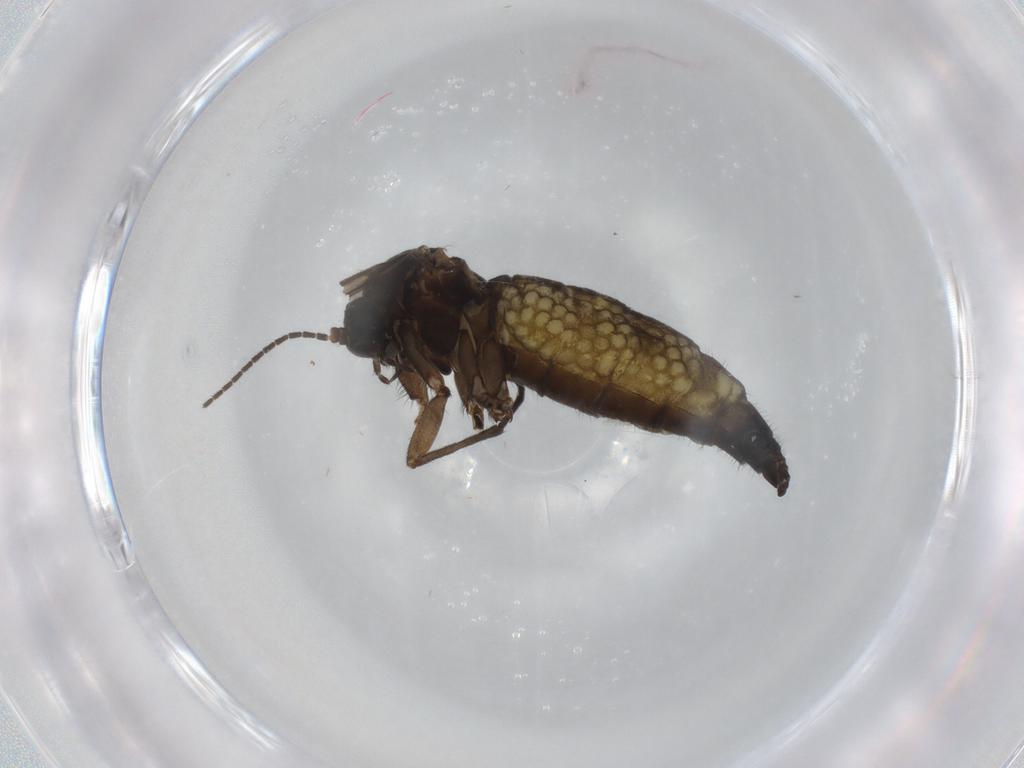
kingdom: Animalia
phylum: Arthropoda
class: Insecta
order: Diptera
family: Sciaridae
